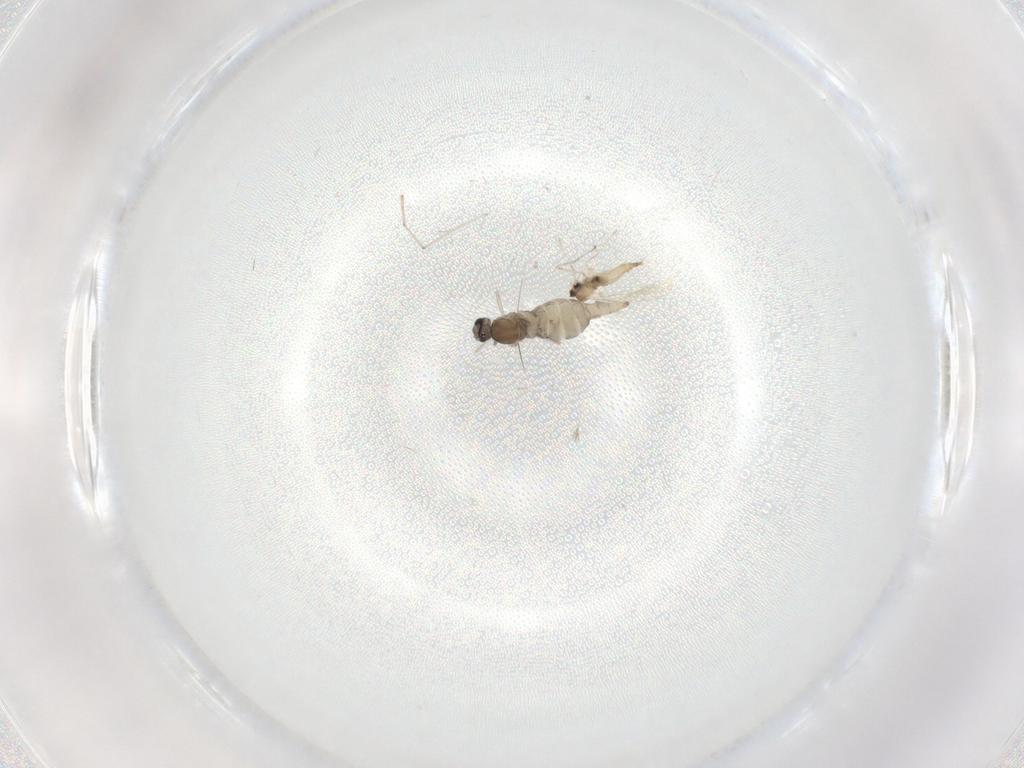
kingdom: Animalia
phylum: Arthropoda
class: Insecta
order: Diptera
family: Cecidomyiidae
